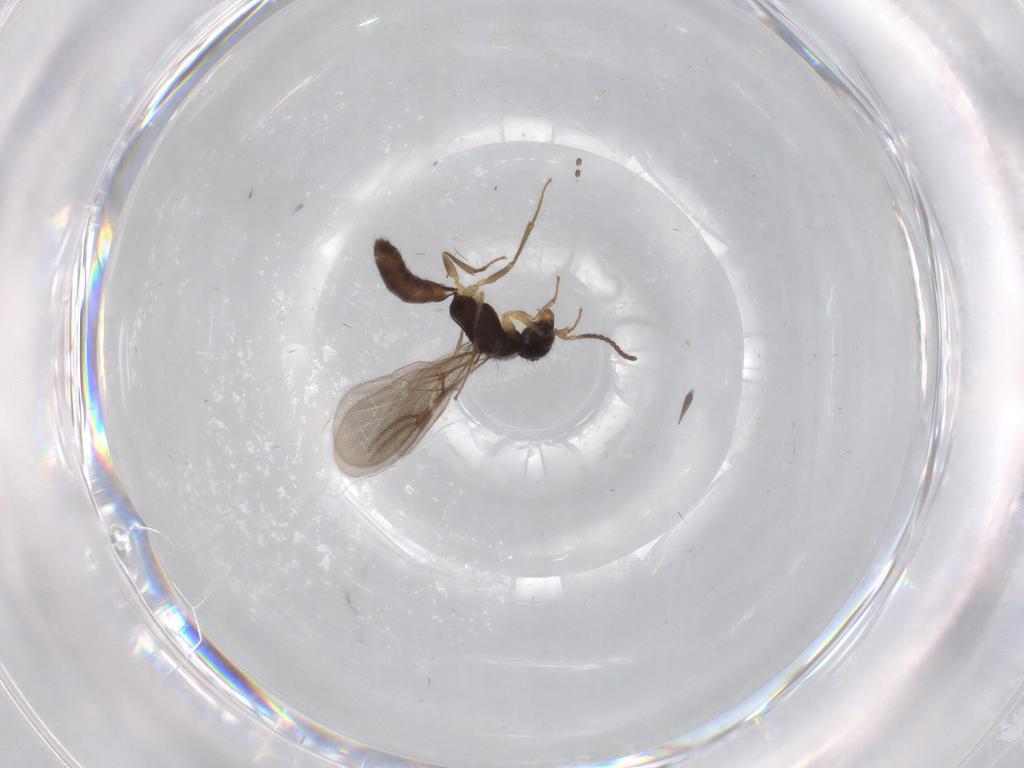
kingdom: Animalia
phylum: Arthropoda
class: Insecta
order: Hymenoptera
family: Bethylidae
